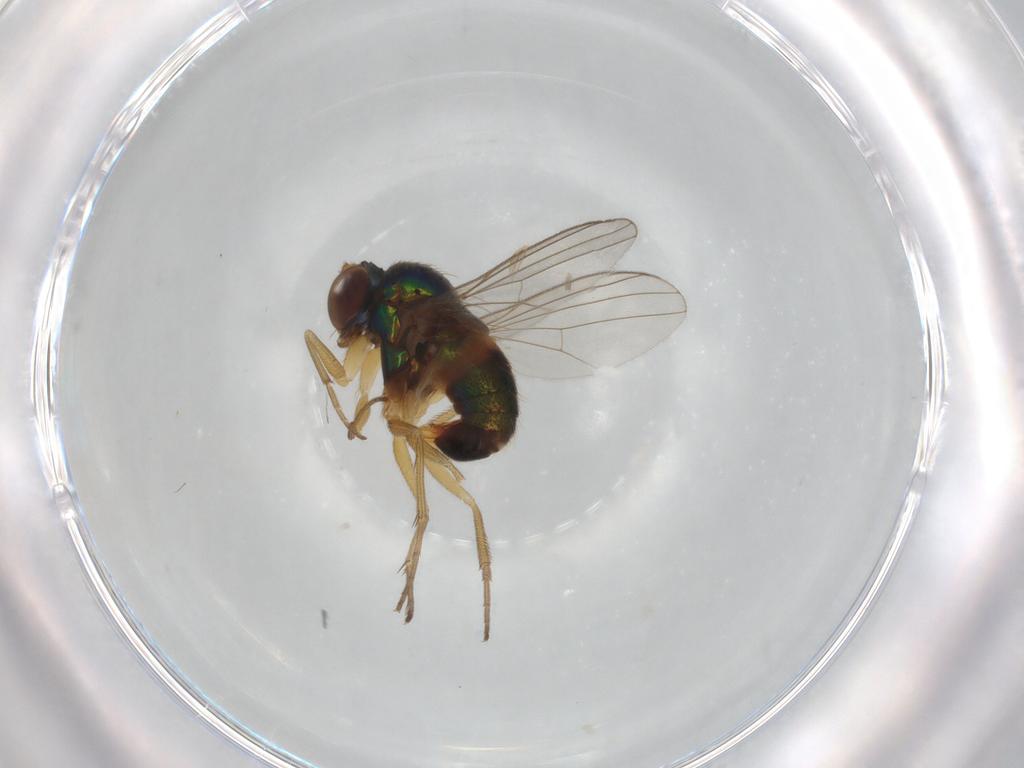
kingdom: Animalia
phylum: Arthropoda
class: Insecta
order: Diptera
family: Dolichopodidae
